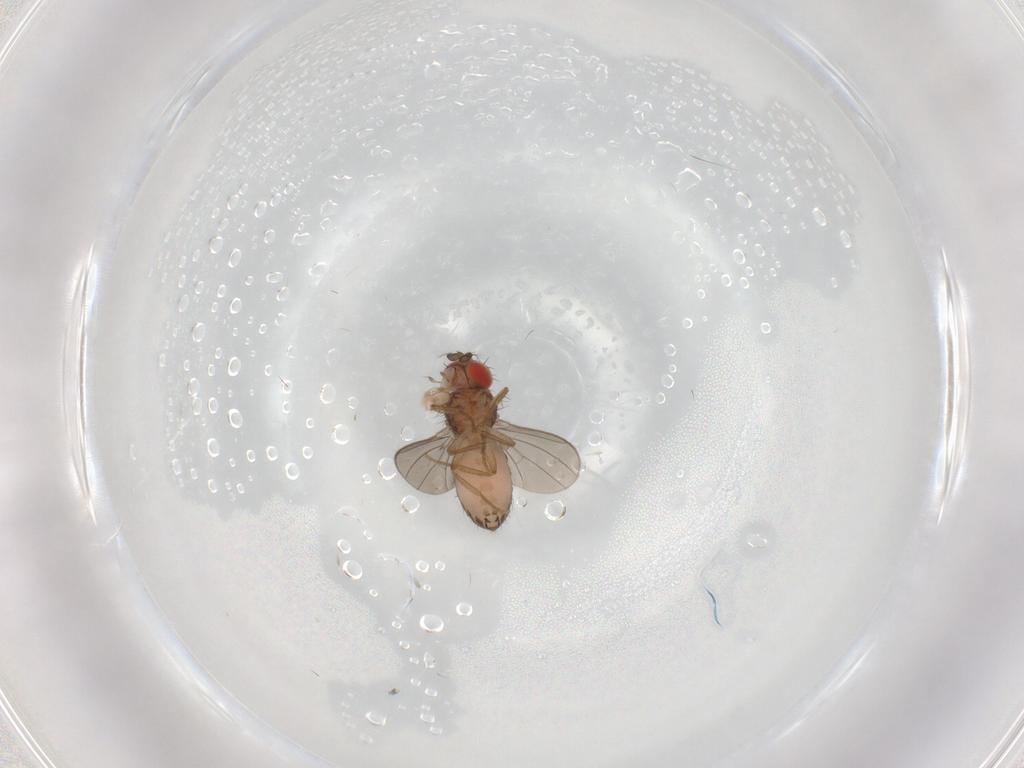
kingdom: Animalia
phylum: Arthropoda
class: Insecta
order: Diptera
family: Drosophilidae
